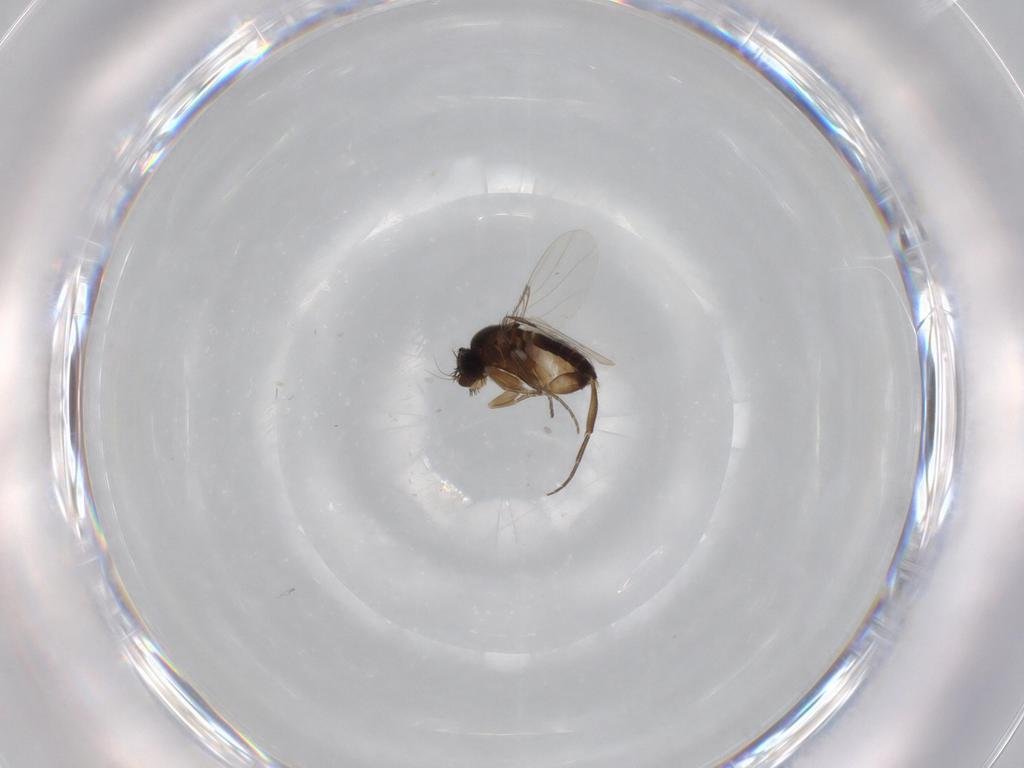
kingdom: Animalia
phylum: Arthropoda
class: Insecta
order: Diptera
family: Phoridae
